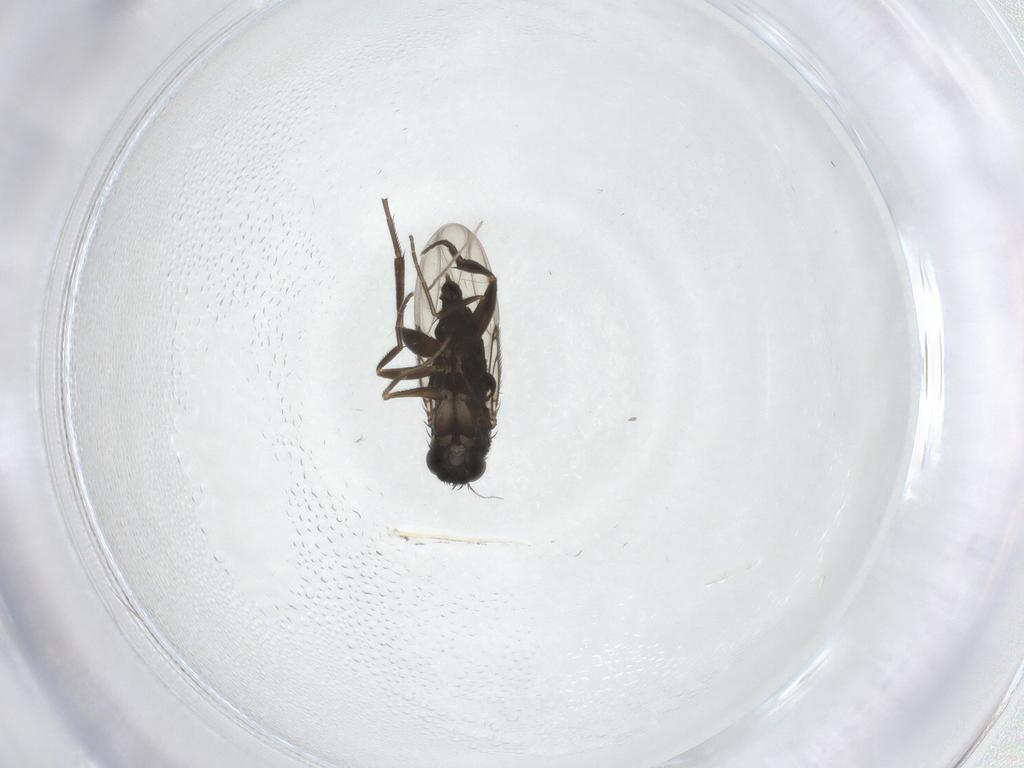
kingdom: Animalia
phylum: Arthropoda
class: Insecta
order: Diptera
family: Phoridae
